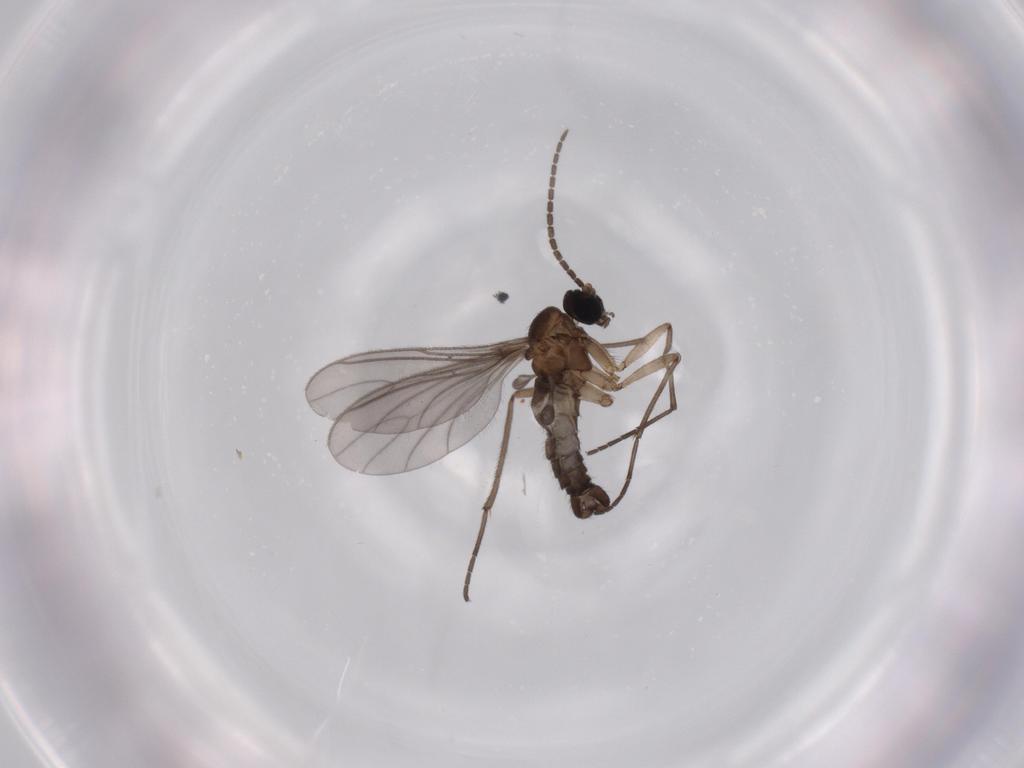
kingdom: Animalia
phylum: Arthropoda
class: Insecta
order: Diptera
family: Sciaridae
